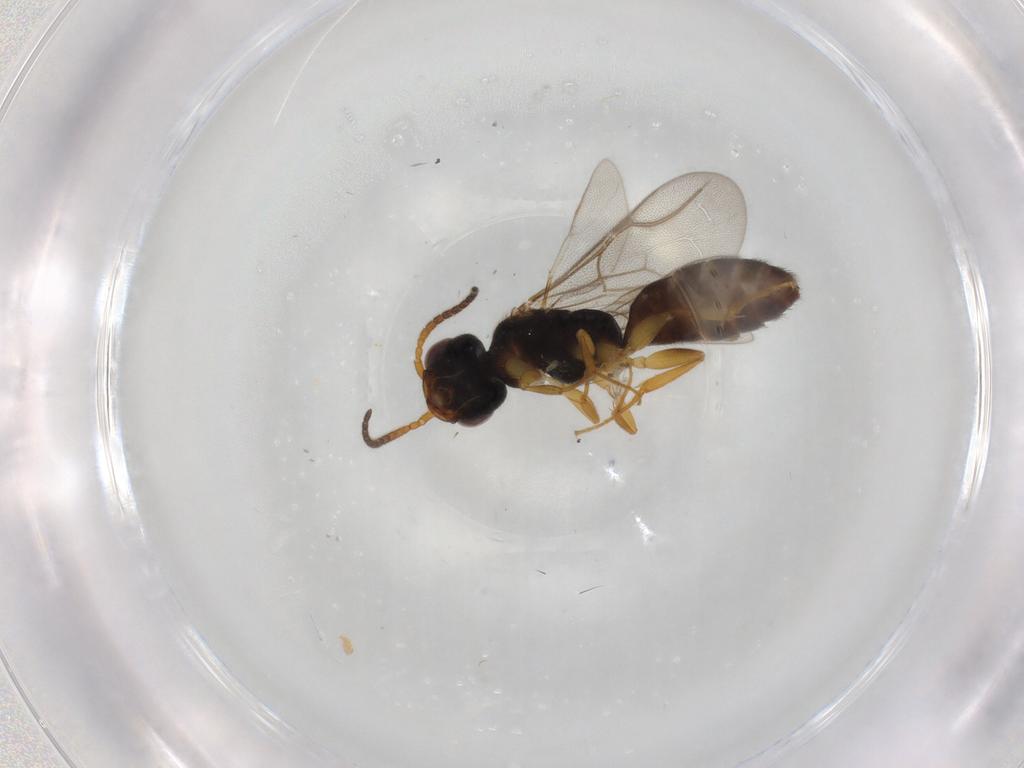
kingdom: Animalia
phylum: Arthropoda
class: Insecta
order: Hymenoptera
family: Bethylidae
